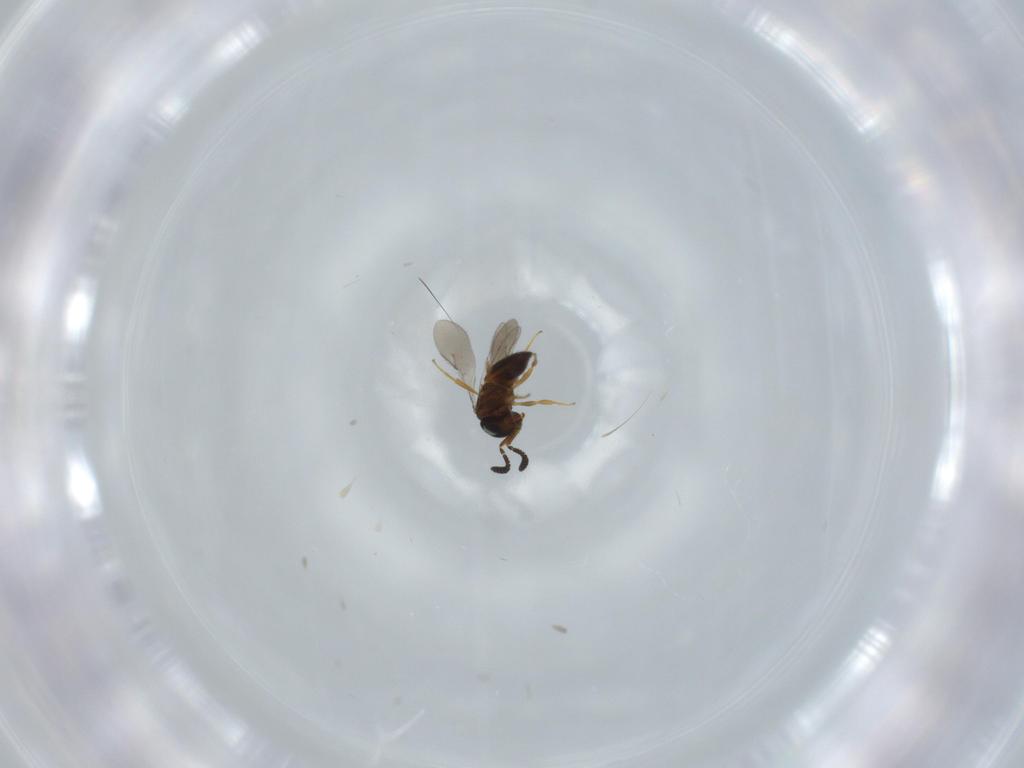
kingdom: Animalia
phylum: Arthropoda
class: Insecta
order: Hymenoptera
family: Scelionidae
